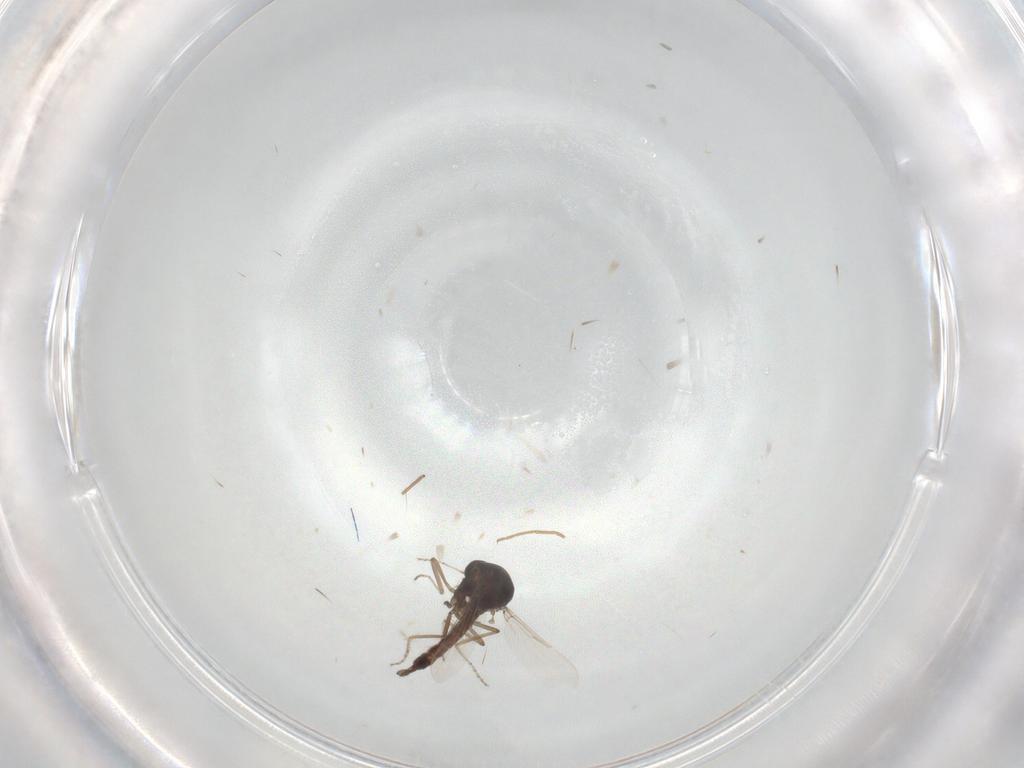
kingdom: Animalia
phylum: Arthropoda
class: Insecta
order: Diptera
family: Ceratopogonidae
